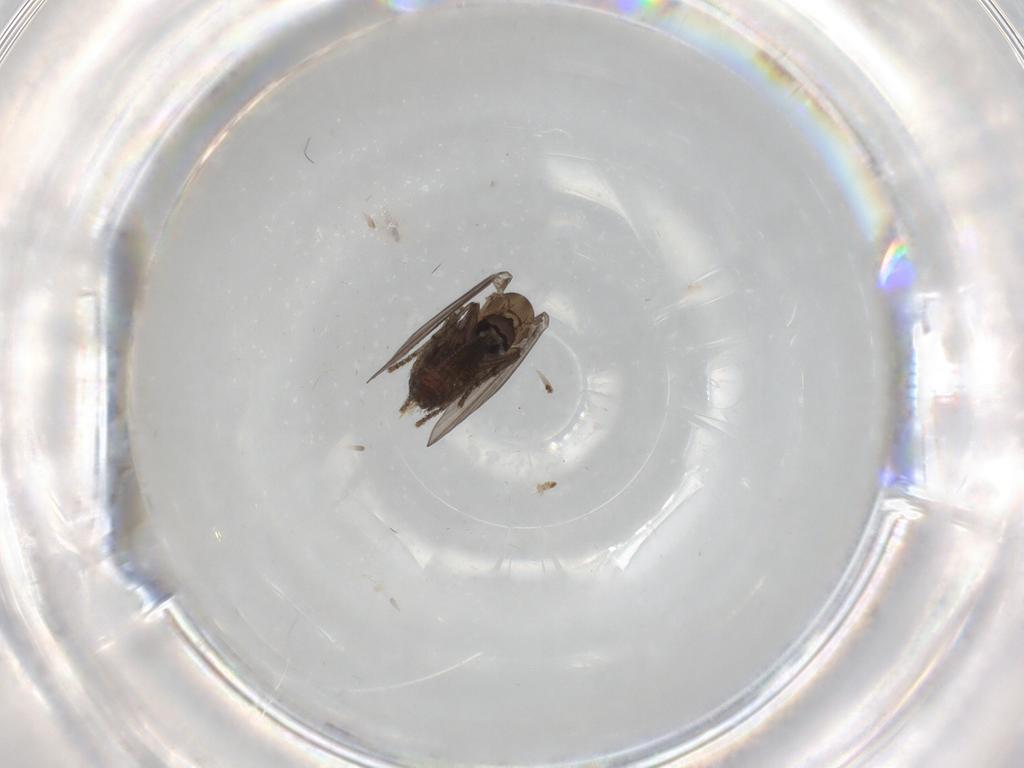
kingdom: Animalia
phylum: Arthropoda
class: Insecta
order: Diptera
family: Psychodidae
